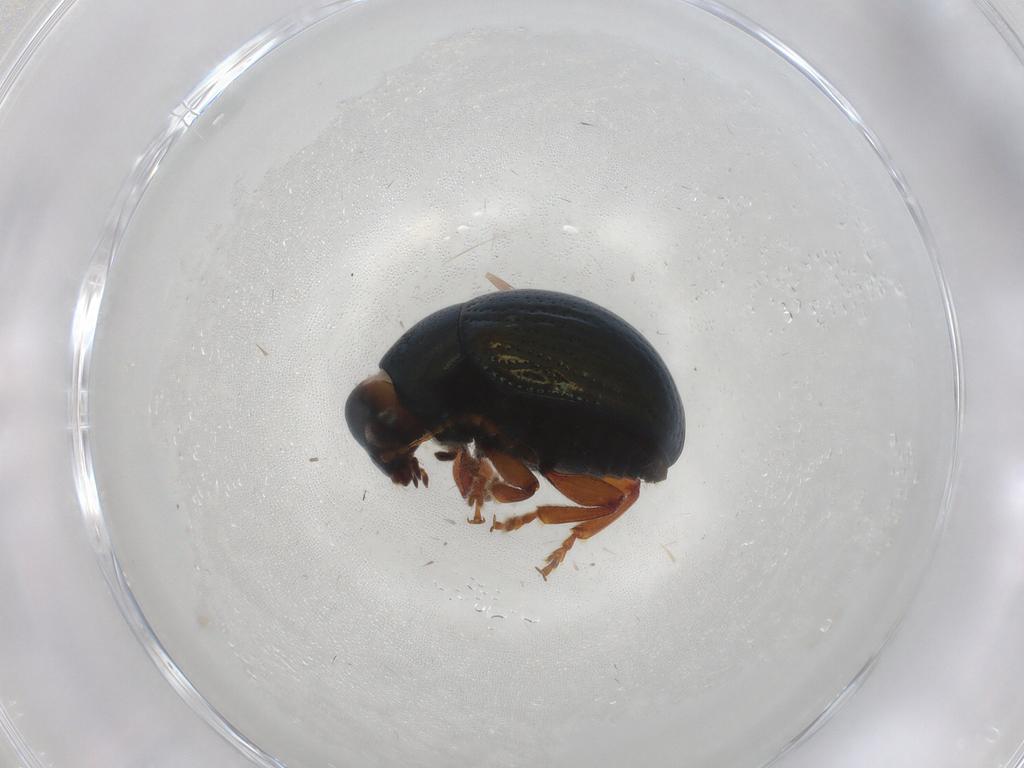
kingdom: Animalia
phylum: Arthropoda
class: Insecta
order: Coleoptera
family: Chrysomelidae
